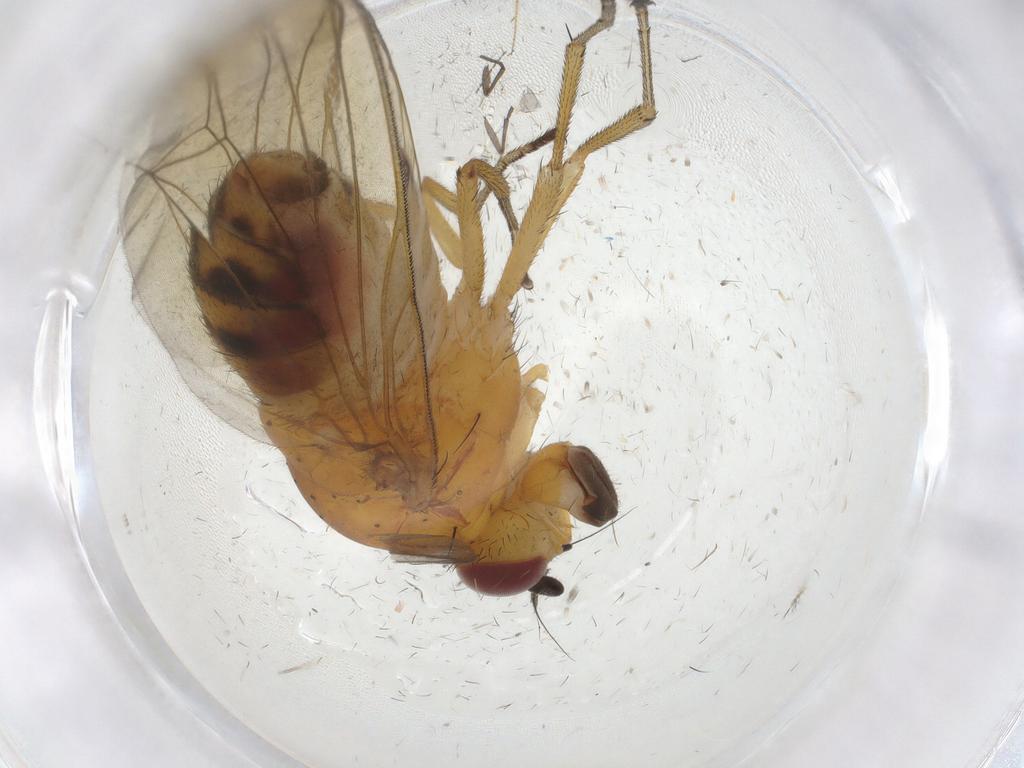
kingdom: Animalia
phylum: Arthropoda
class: Insecta
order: Diptera
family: Lauxaniidae
